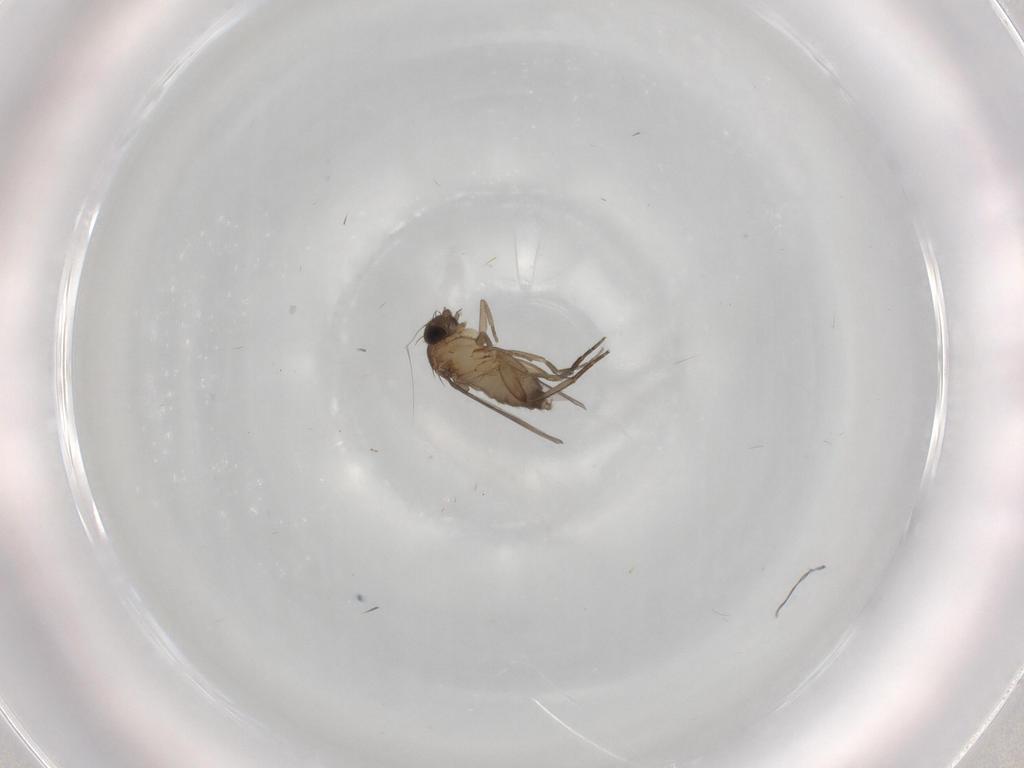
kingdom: Animalia
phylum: Arthropoda
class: Insecta
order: Diptera
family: Phoridae
